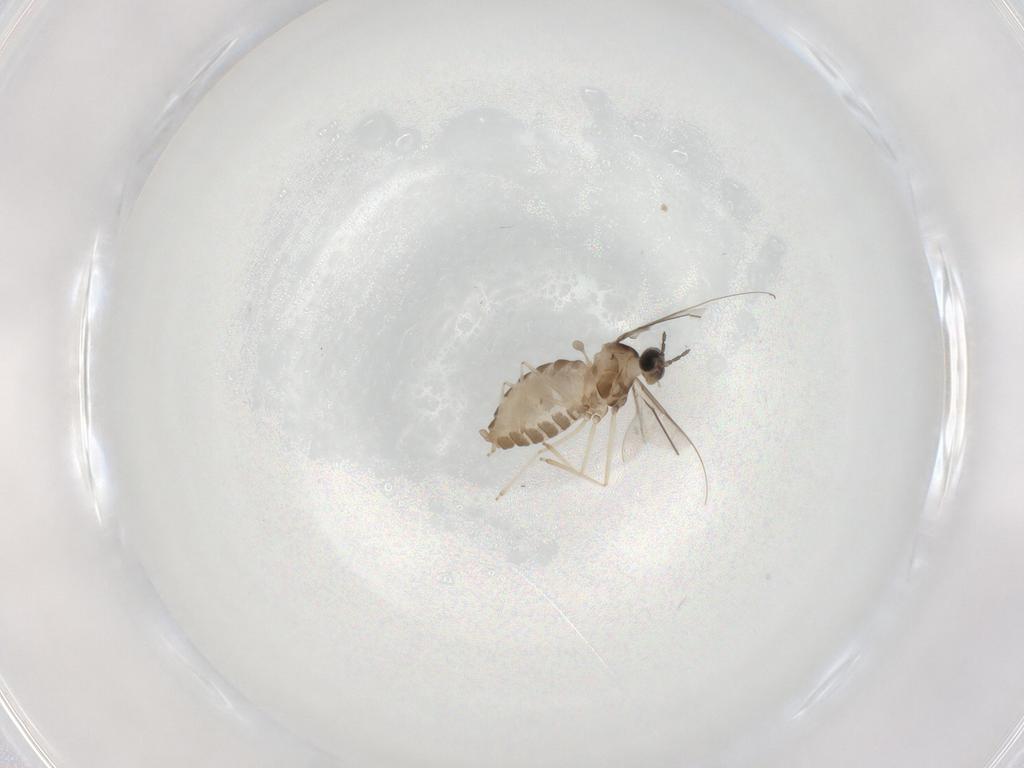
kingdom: Animalia
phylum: Arthropoda
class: Insecta
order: Diptera
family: Cecidomyiidae
